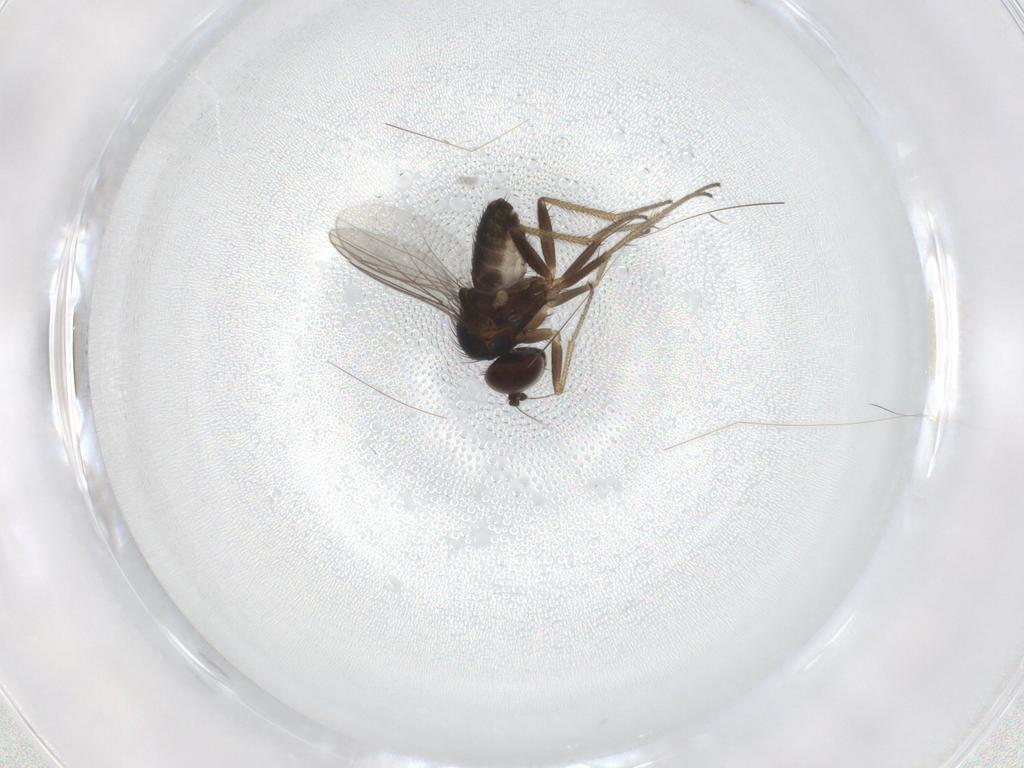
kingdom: Animalia
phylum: Arthropoda
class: Insecta
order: Diptera
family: Cecidomyiidae
